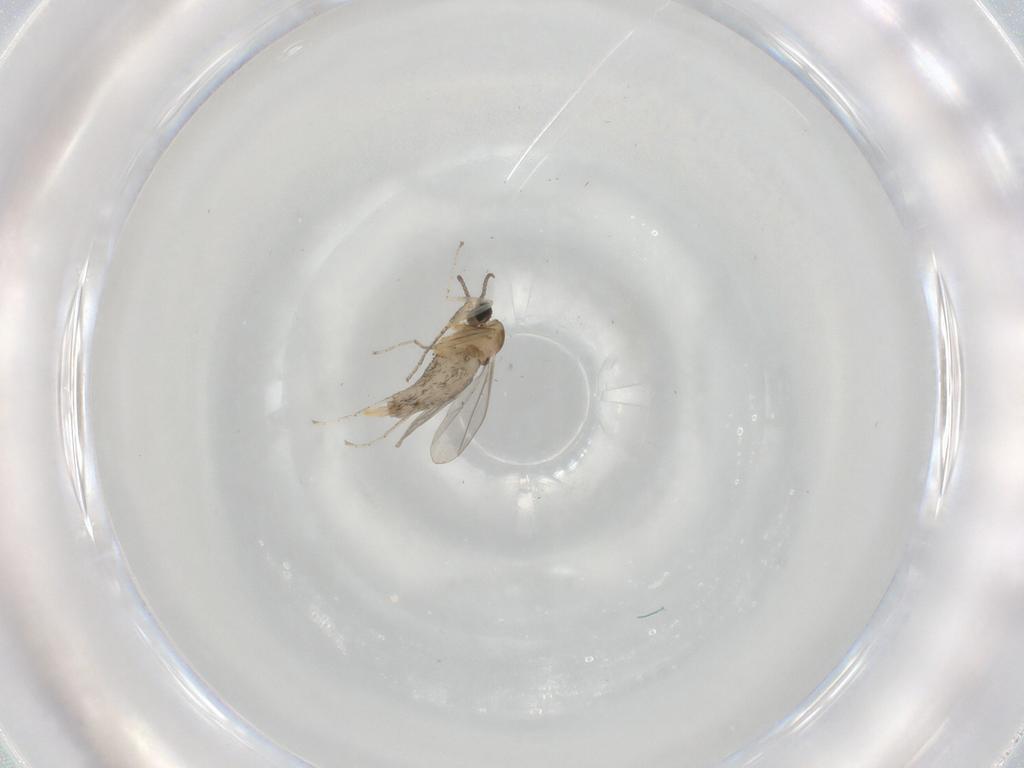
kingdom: Animalia
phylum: Arthropoda
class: Insecta
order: Diptera
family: Cecidomyiidae
